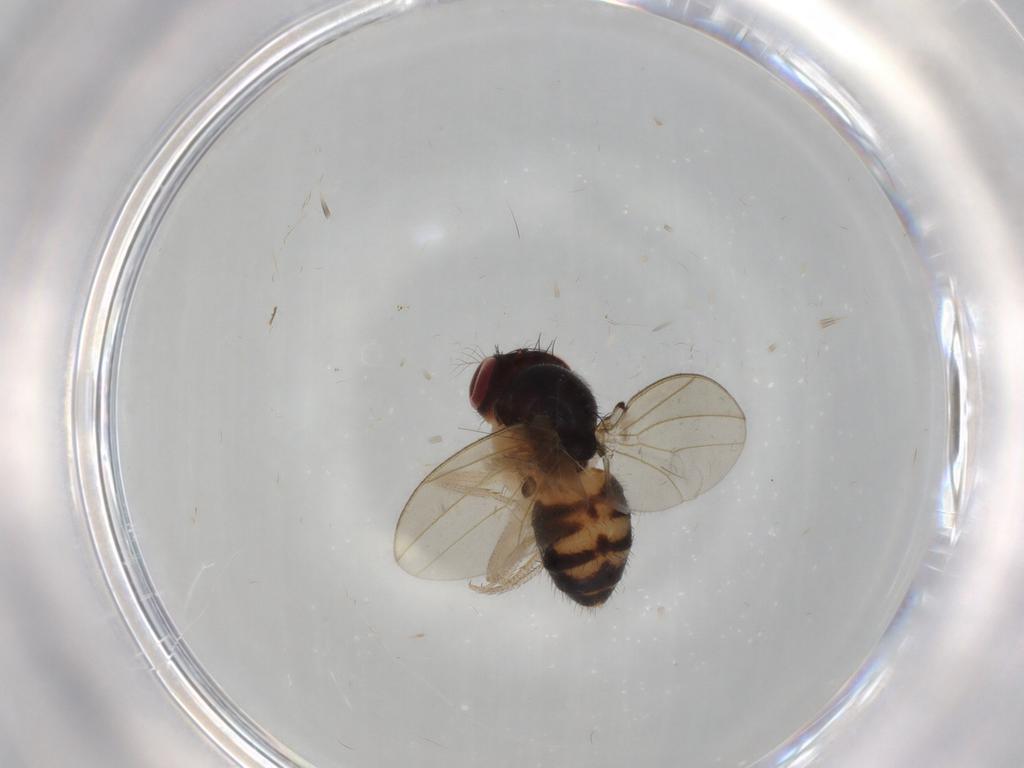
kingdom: Animalia
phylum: Arthropoda
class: Insecta
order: Diptera
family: Drosophilidae
